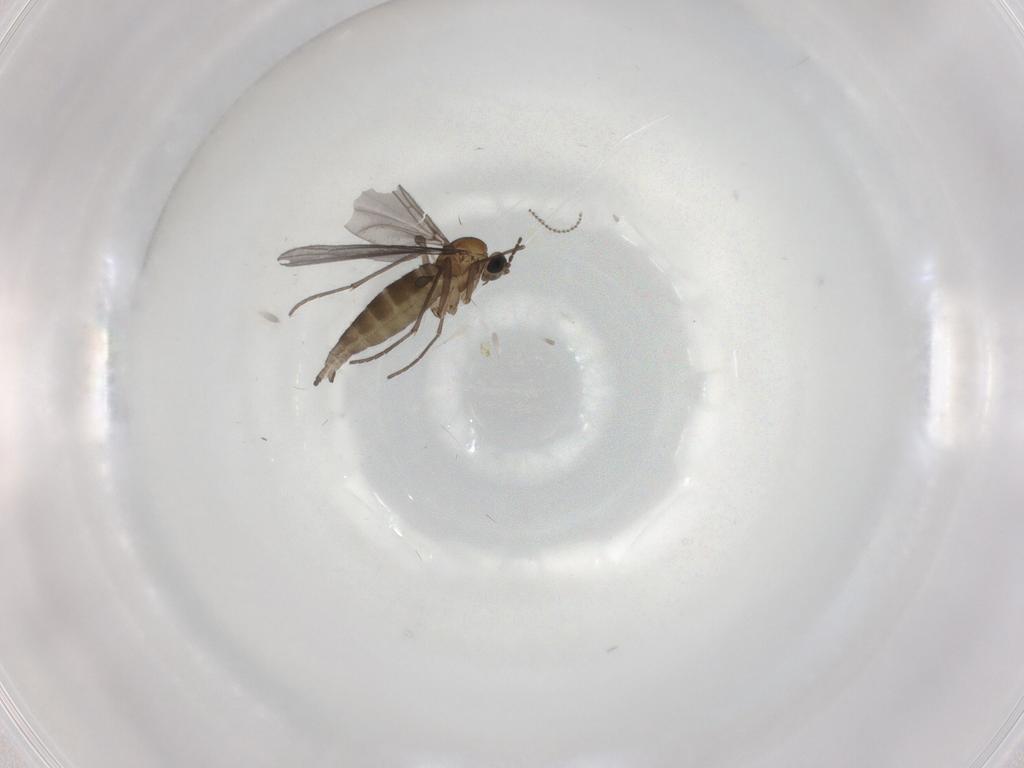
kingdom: Animalia
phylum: Arthropoda
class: Insecta
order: Diptera
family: Sciaridae
